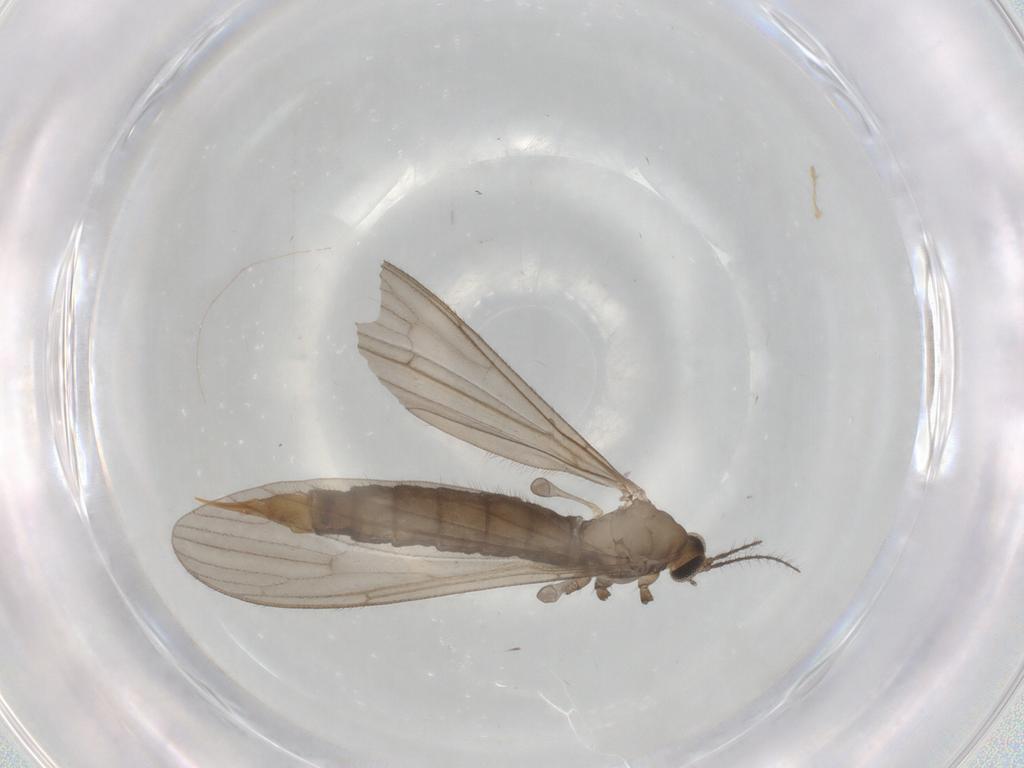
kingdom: Animalia
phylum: Arthropoda
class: Insecta
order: Diptera
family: Limoniidae
